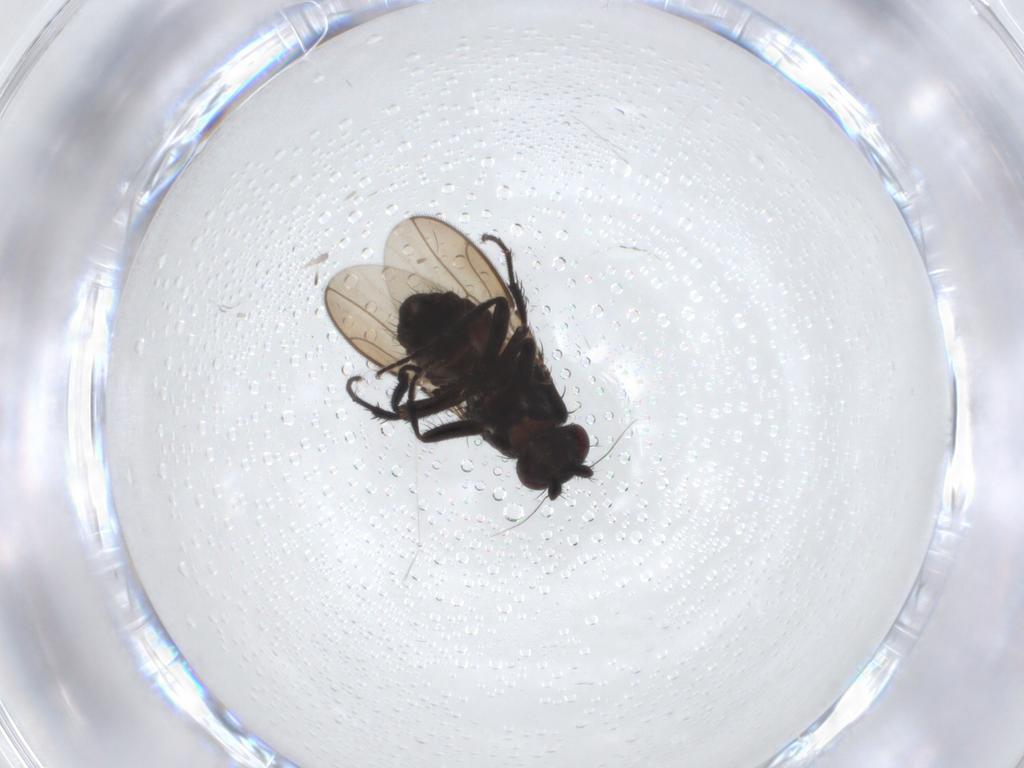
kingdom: Animalia
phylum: Arthropoda
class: Insecta
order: Diptera
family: Sphaeroceridae
